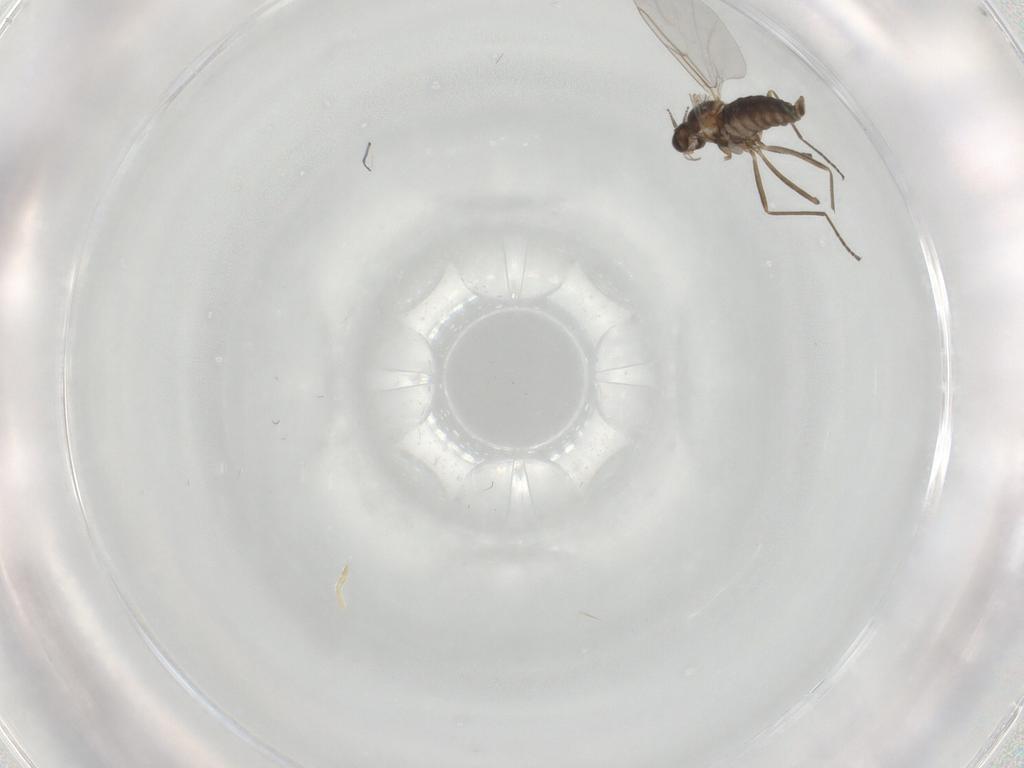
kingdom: Animalia
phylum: Arthropoda
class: Insecta
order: Diptera
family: Cecidomyiidae
